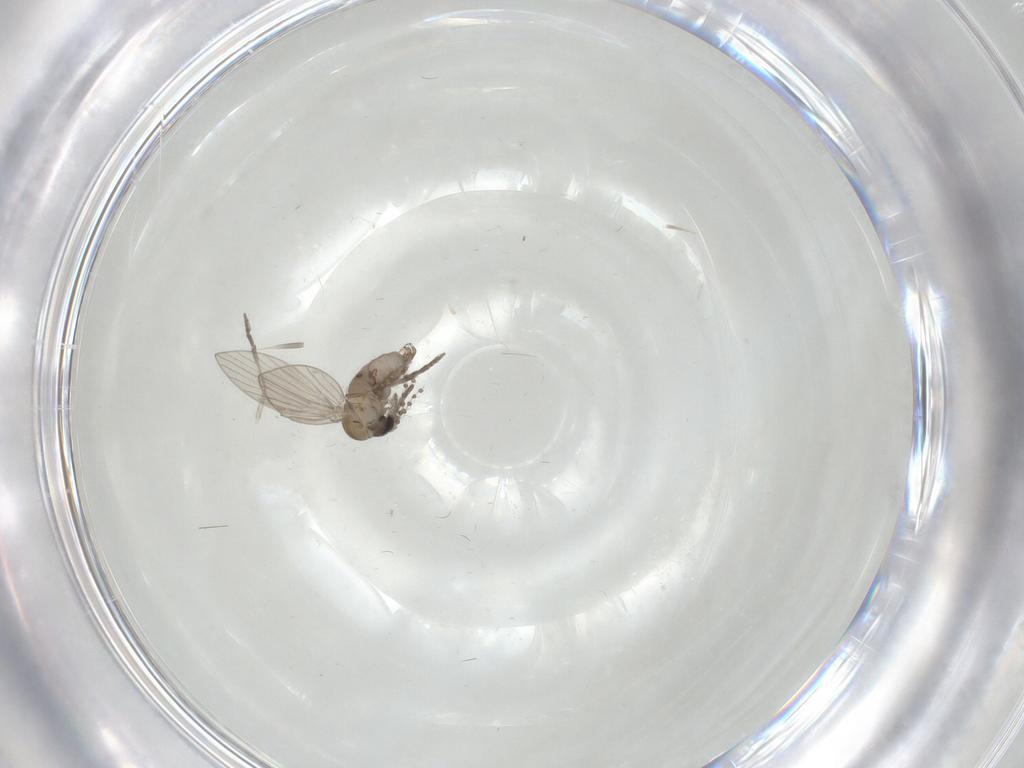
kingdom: Animalia
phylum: Arthropoda
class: Insecta
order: Diptera
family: Psychodidae
